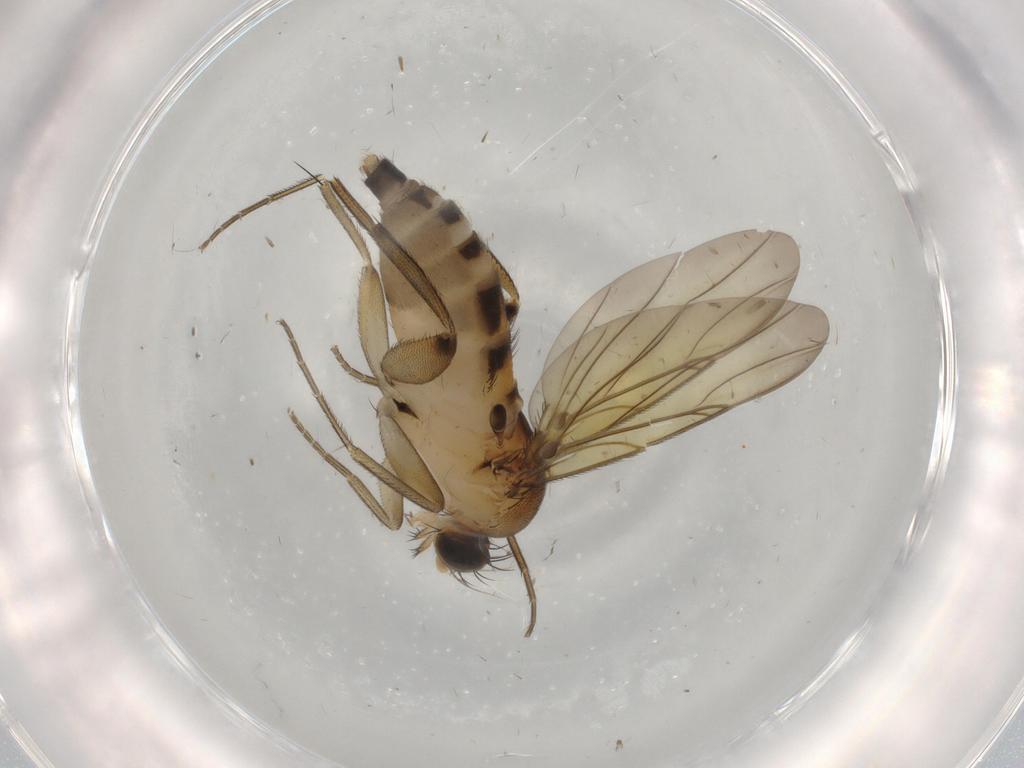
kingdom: Animalia
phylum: Arthropoda
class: Insecta
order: Diptera
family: Phoridae
